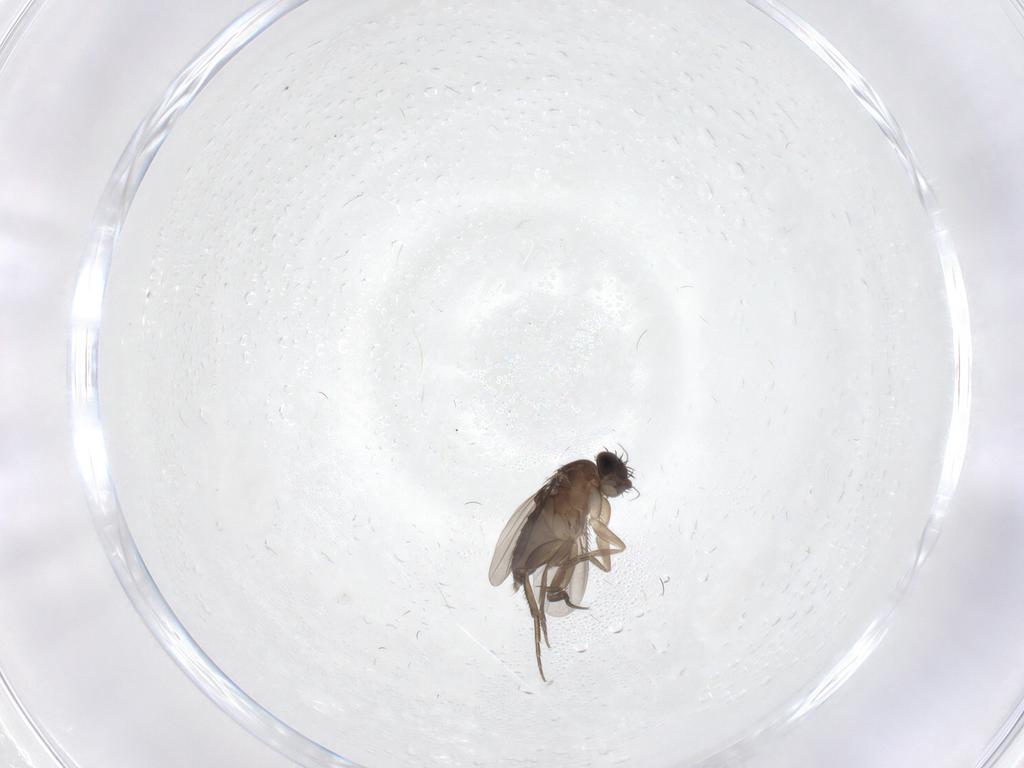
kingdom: Animalia
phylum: Arthropoda
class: Insecta
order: Diptera
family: Phoridae
